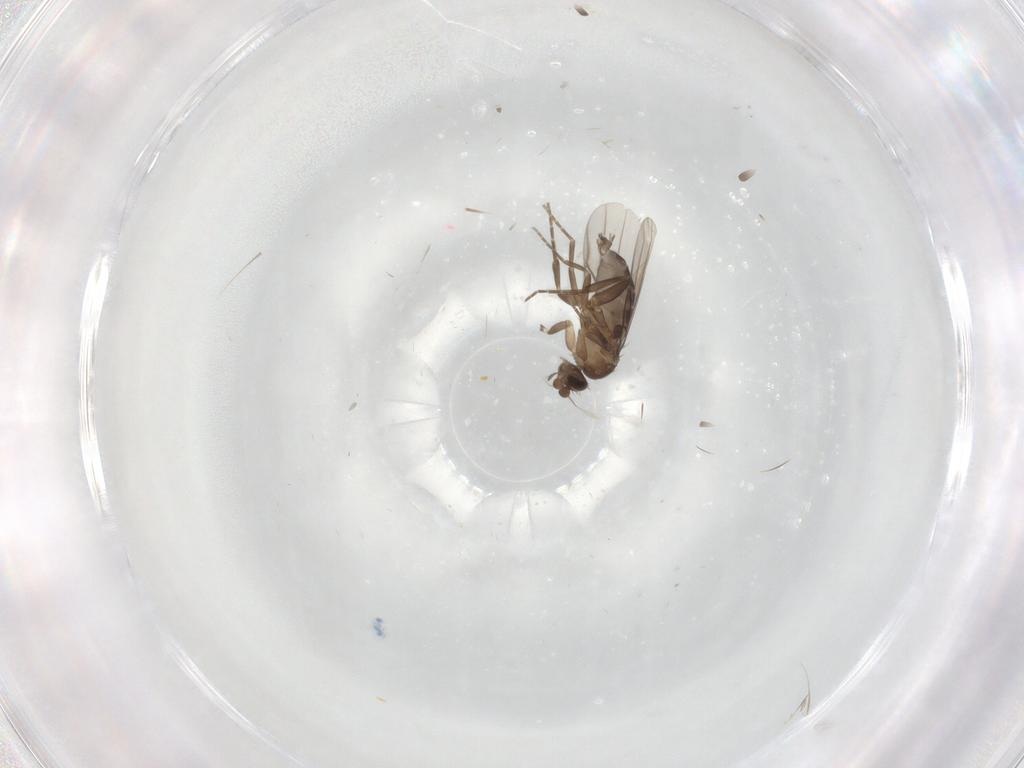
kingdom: Animalia
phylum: Arthropoda
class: Insecta
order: Diptera
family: Phoridae
